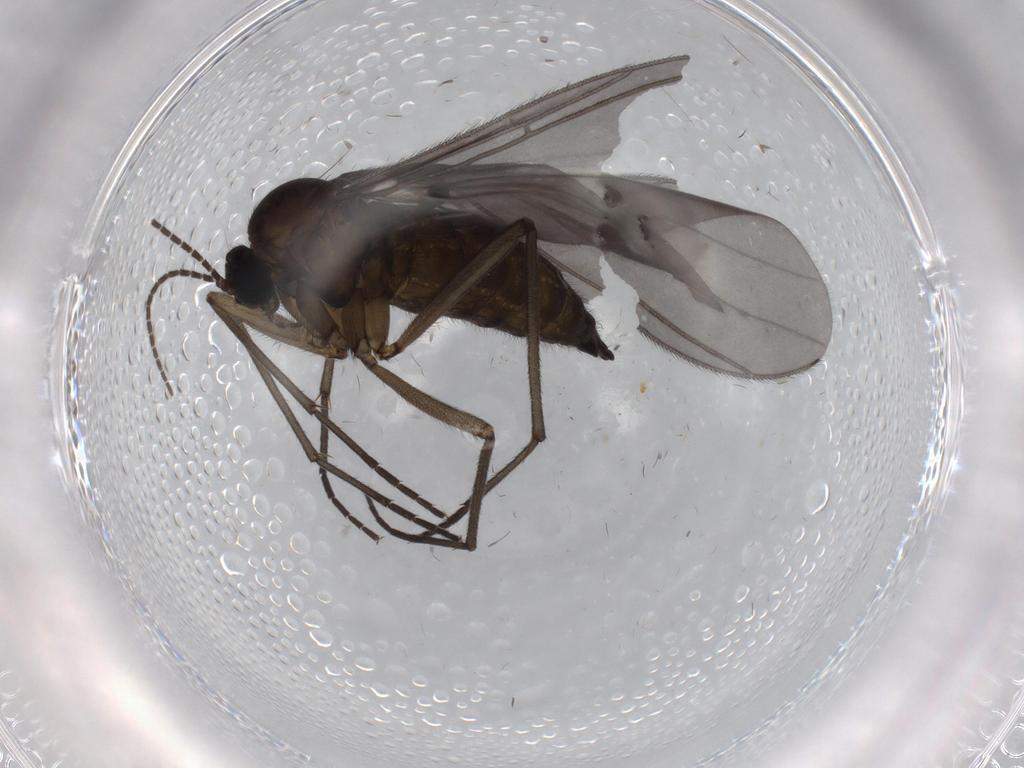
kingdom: Animalia
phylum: Arthropoda
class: Insecta
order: Diptera
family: Sciaridae
